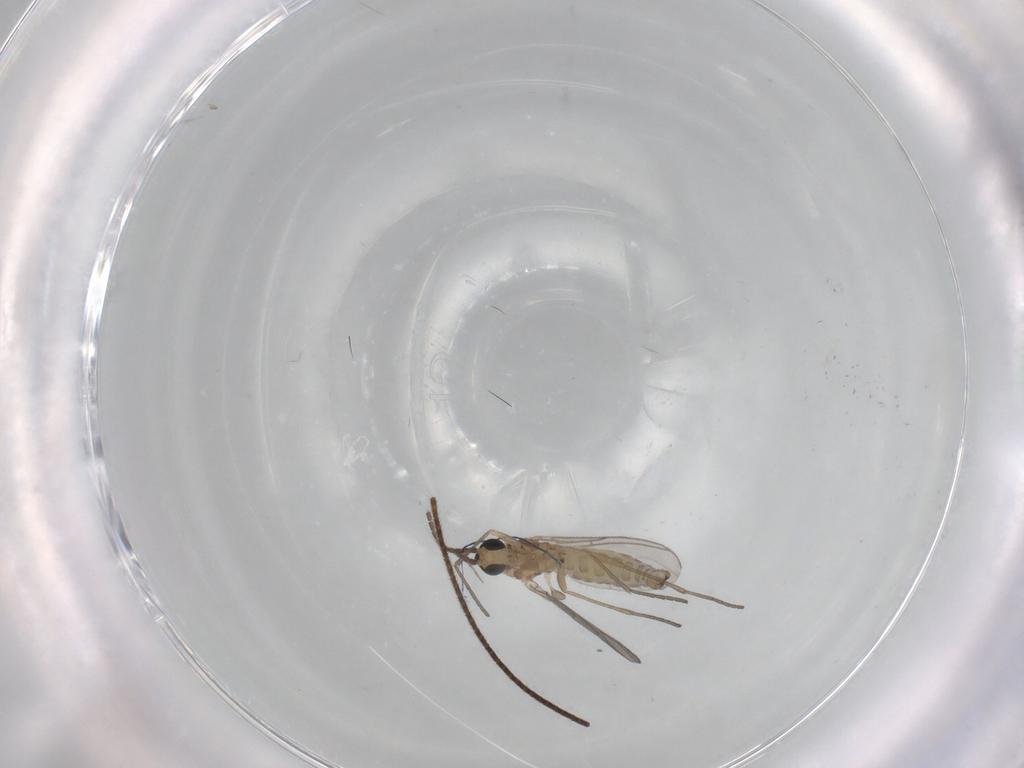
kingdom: Animalia
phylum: Arthropoda
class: Insecta
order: Diptera
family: Sciaridae
